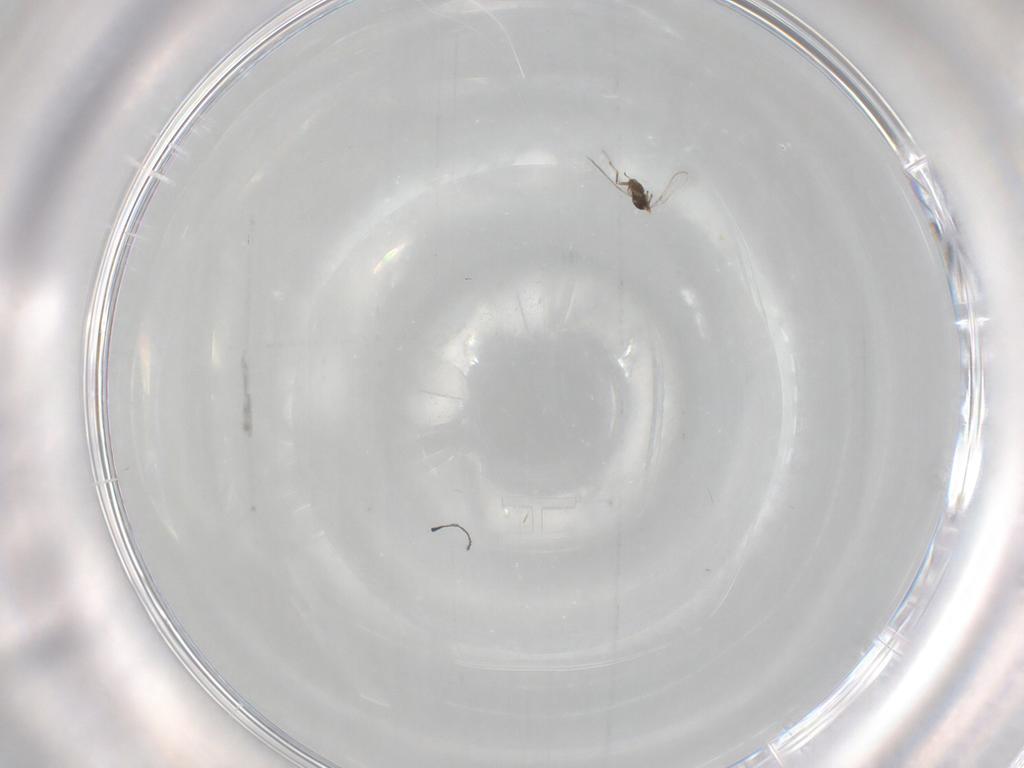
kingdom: Animalia
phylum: Arthropoda
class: Insecta
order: Hymenoptera
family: Mymaridae
